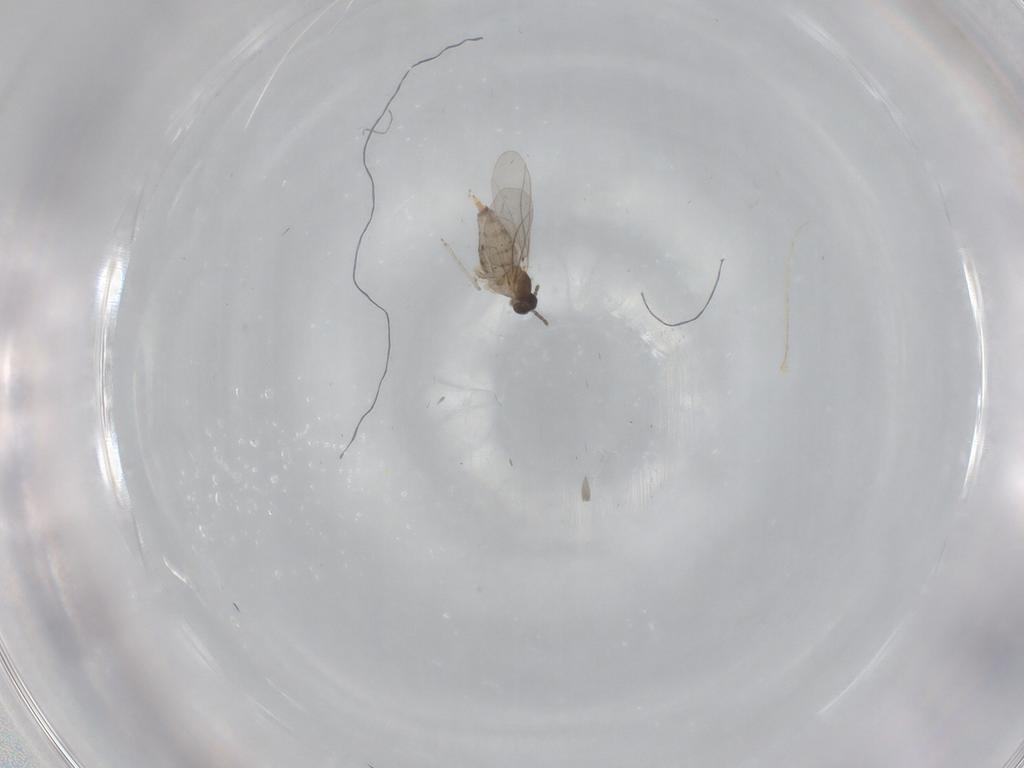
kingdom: Animalia
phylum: Arthropoda
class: Insecta
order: Diptera
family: Cecidomyiidae
